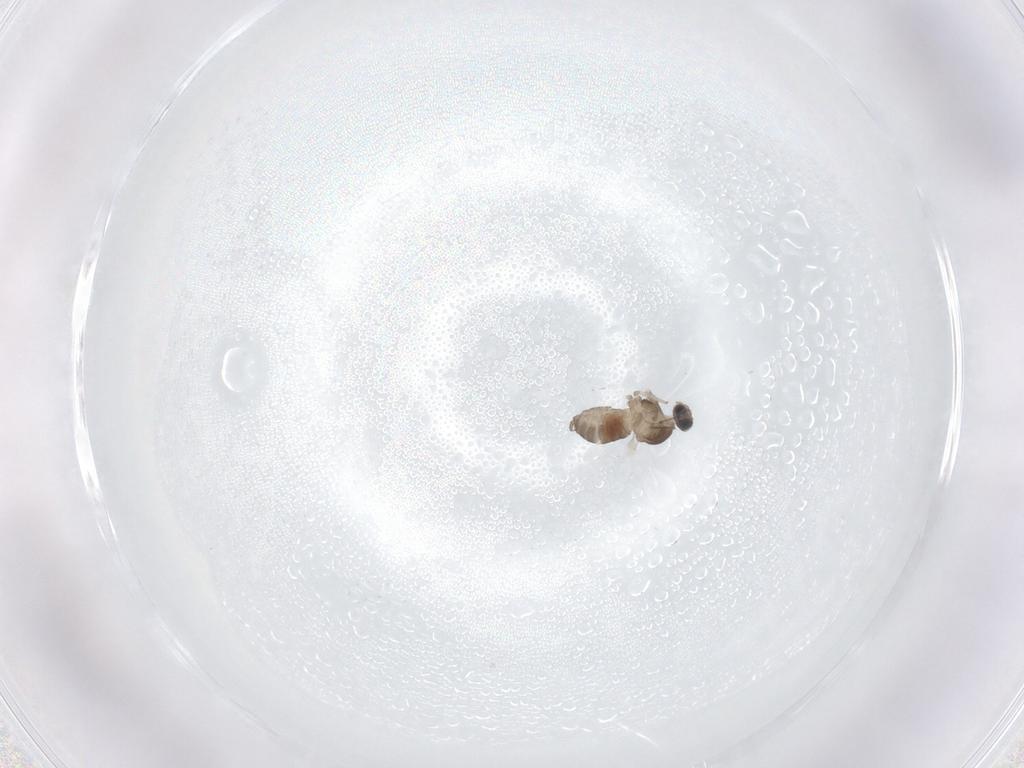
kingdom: Animalia
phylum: Arthropoda
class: Insecta
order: Diptera
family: Cecidomyiidae
